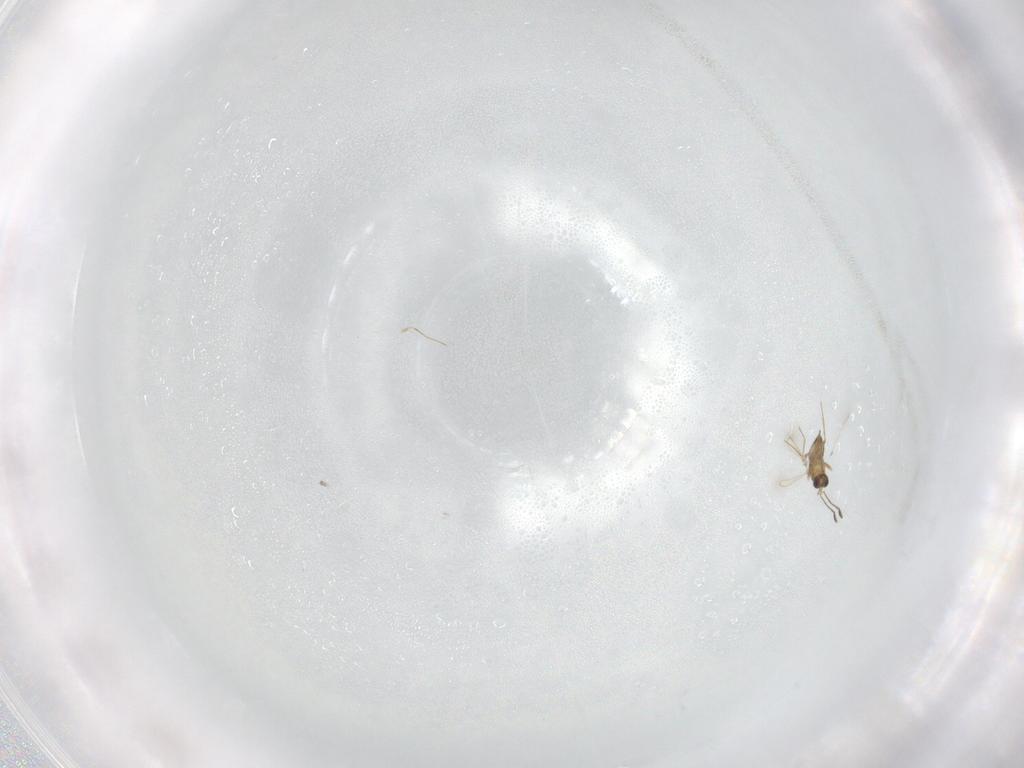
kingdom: Animalia
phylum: Arthropoda
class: Insecta
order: Hymenoptera
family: Mymaridae
